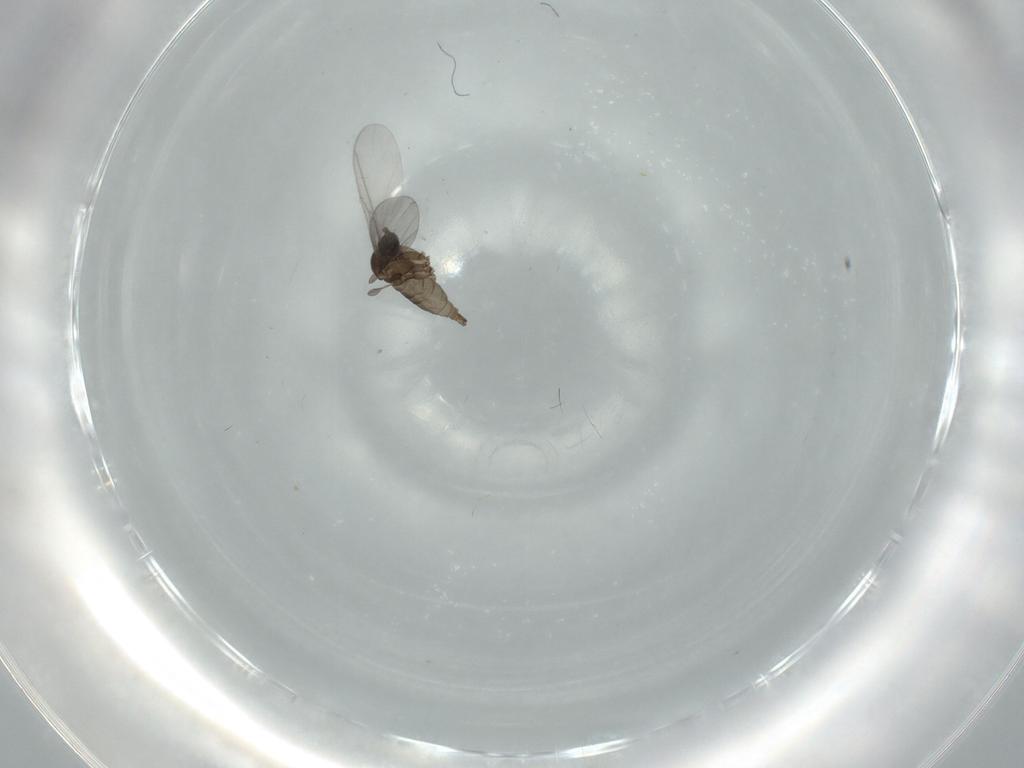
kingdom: Animalia
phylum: Arthropoda
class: Insecta
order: Diptera
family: Sciaridae
